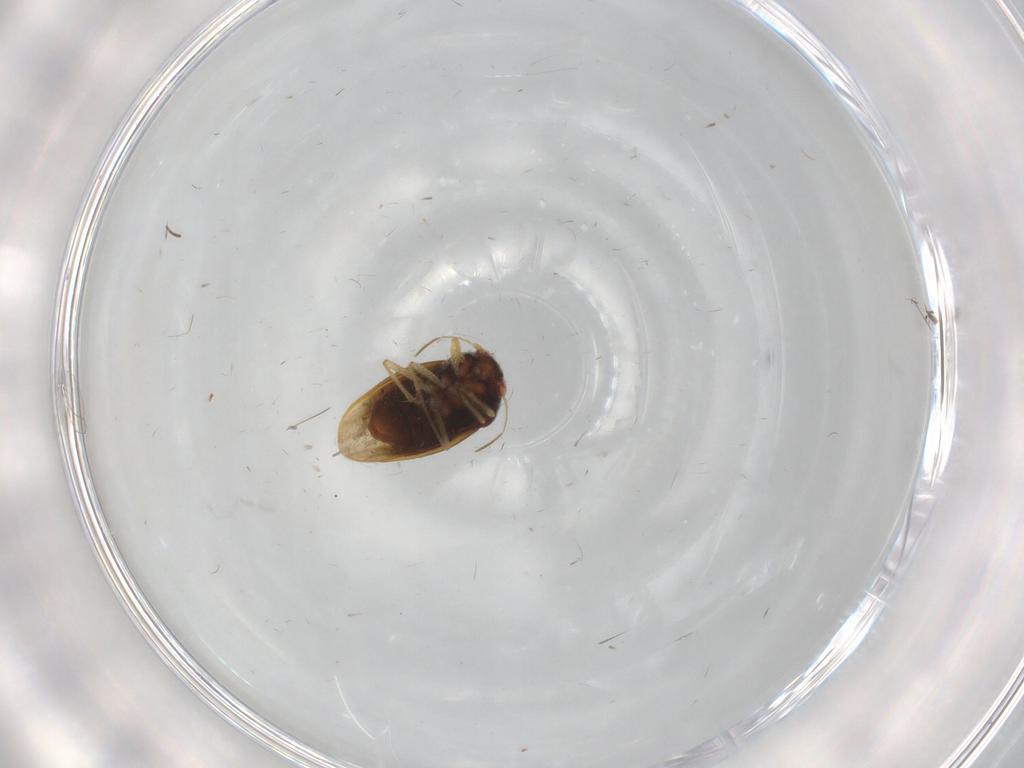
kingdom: Animalia
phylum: Arthropoda
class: Insecta
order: Hemiptera
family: Schizopteridae
